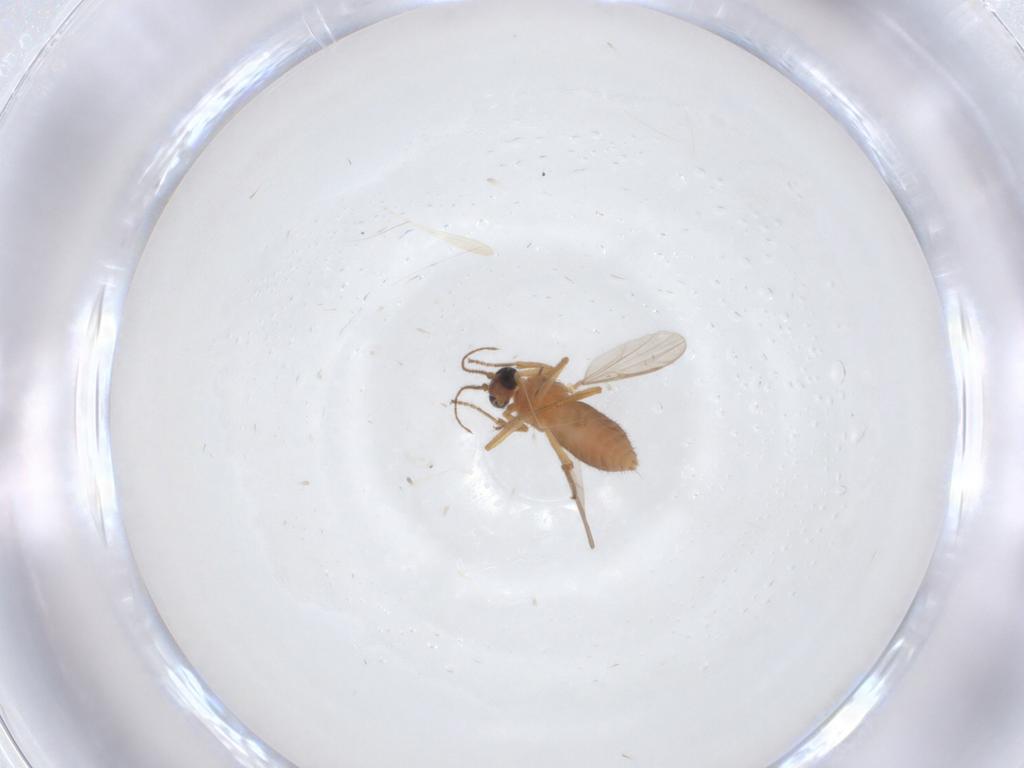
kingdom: Animalia
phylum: Arthropoda
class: Insecta
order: Diptera
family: Ceratopogonidae
